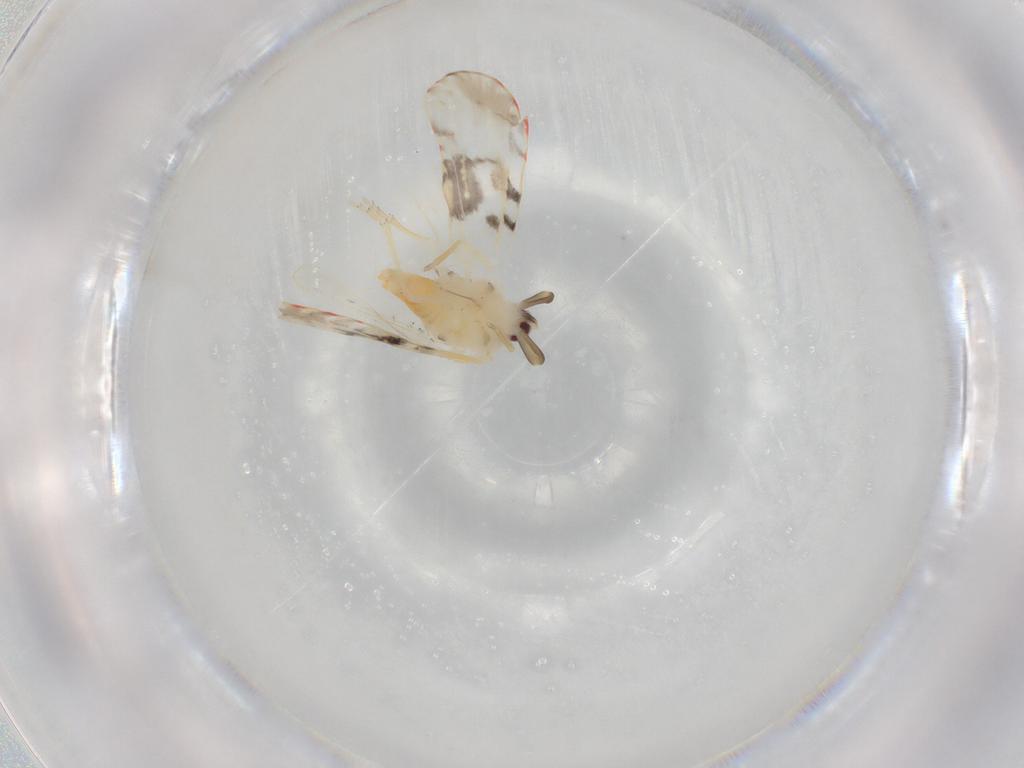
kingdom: Animalia
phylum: Arthropoda
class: Insecta
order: Hemiptera
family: Derbidae
